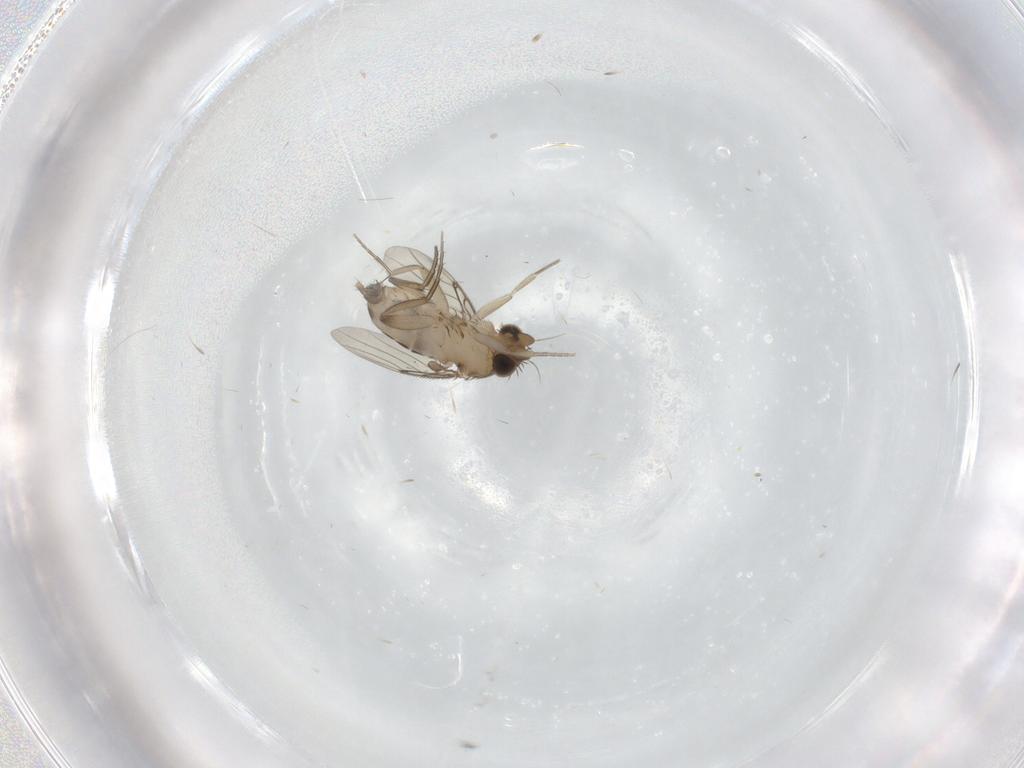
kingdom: Animalia
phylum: Arthropoda
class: Insecta
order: Diptera
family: Phoridae
